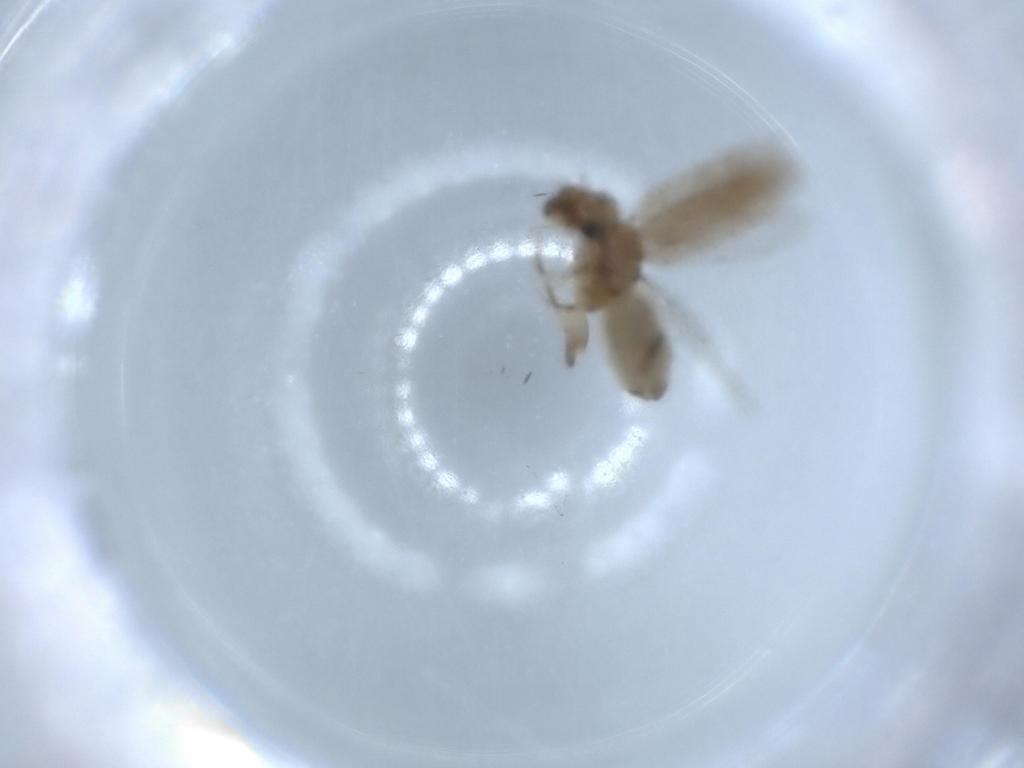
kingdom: Animalia
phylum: Arthropoda
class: Insecta
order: Psocodea
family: Lepidopsocidae
